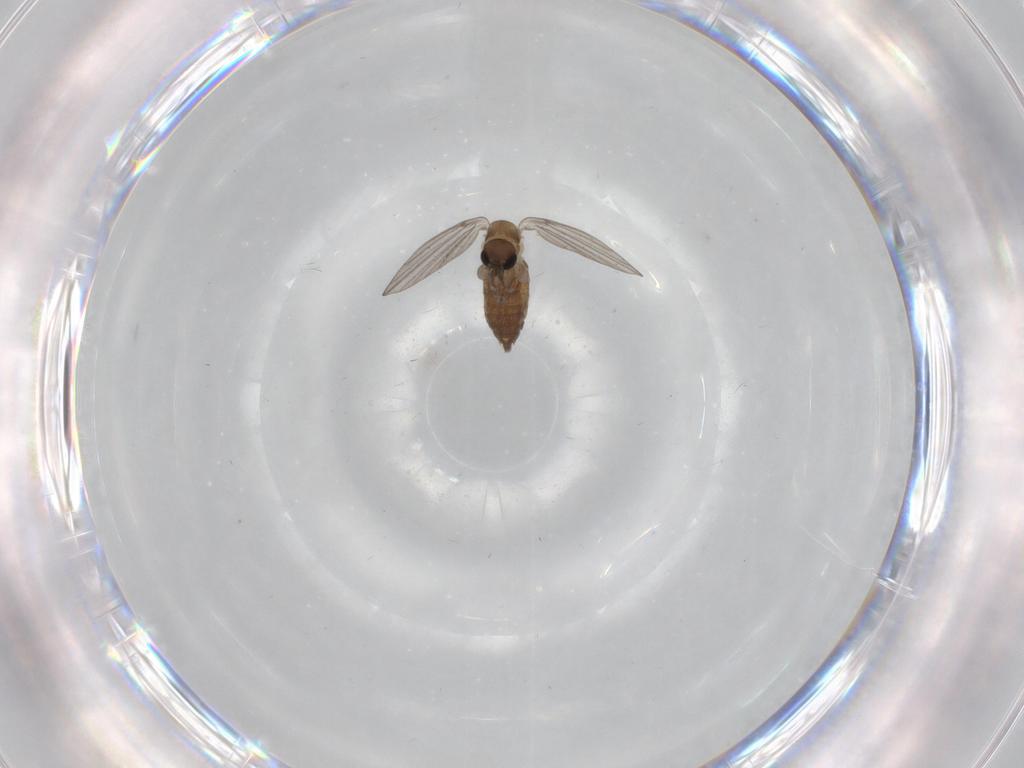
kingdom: Animalia
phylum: Arthropoda
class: Insecta
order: Diptera
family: Psychodidae
